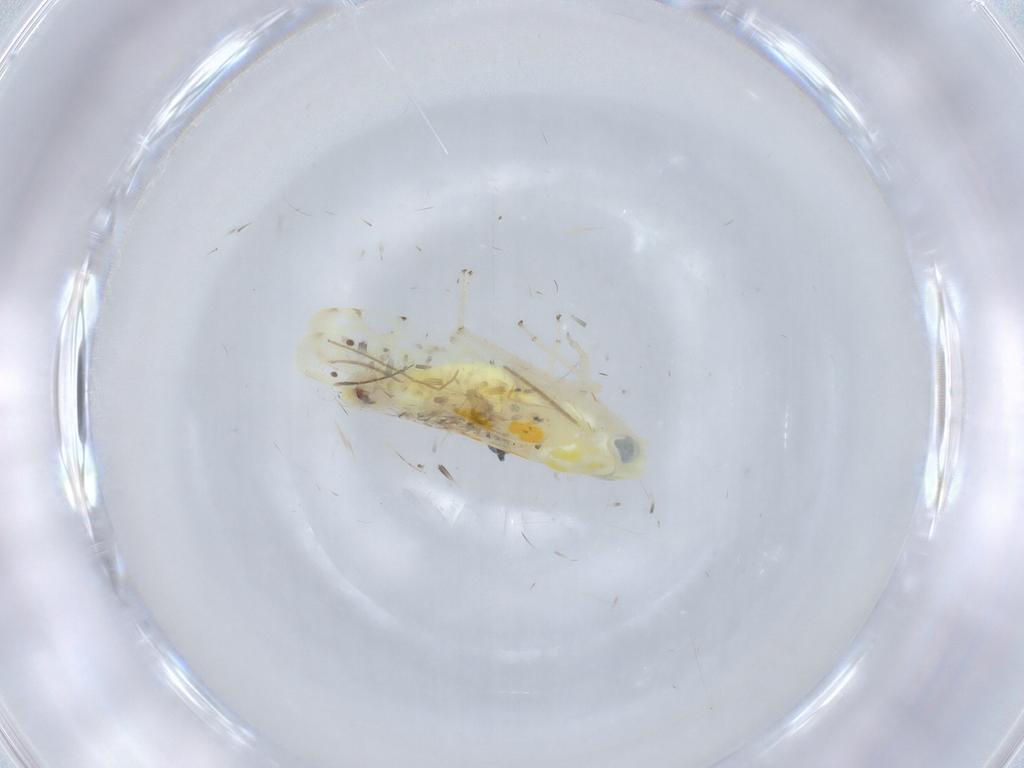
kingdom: Animalia
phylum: Arthropoda
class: Insecta
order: Hemiptera
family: Cicadellidae
